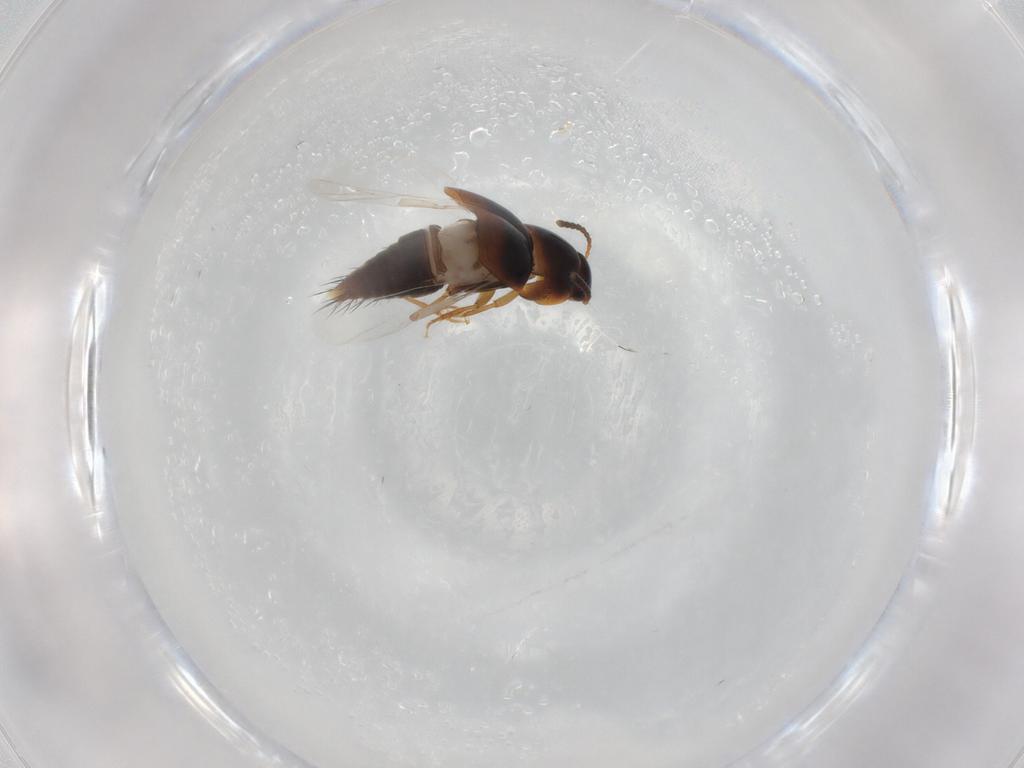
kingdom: Animalia
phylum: Arthropoda
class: Insecta
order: Coleoptera
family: Staphylinidae
